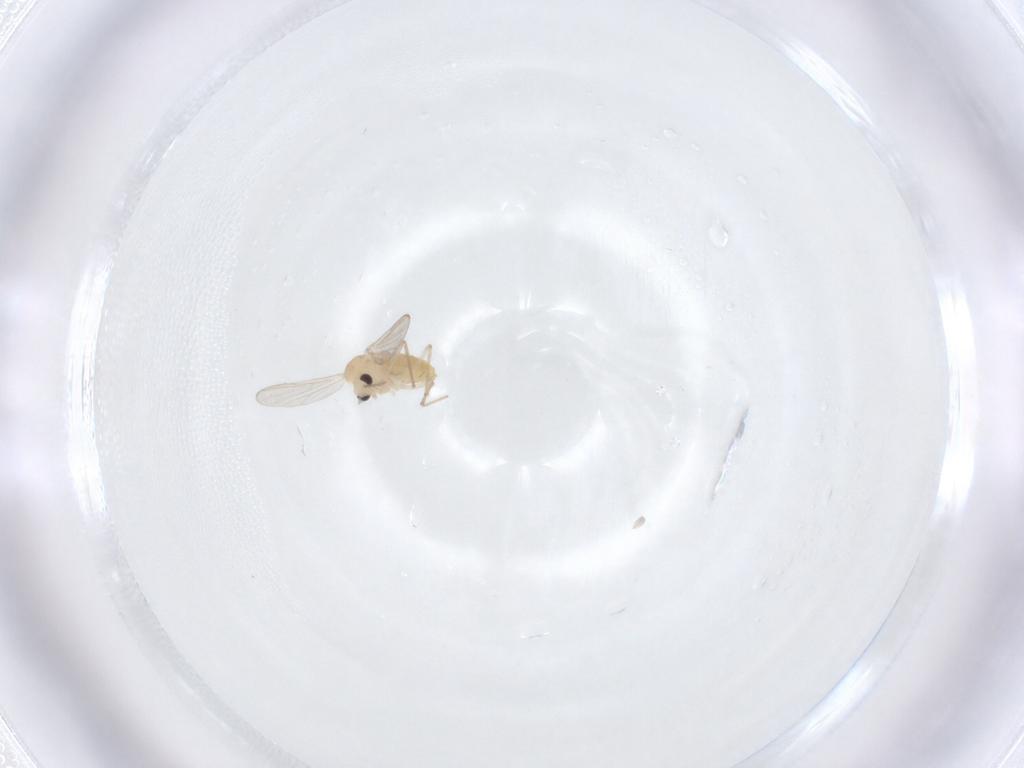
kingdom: Animalia
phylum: Arthropoda
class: Insecta
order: Diptera
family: Chironomidae
